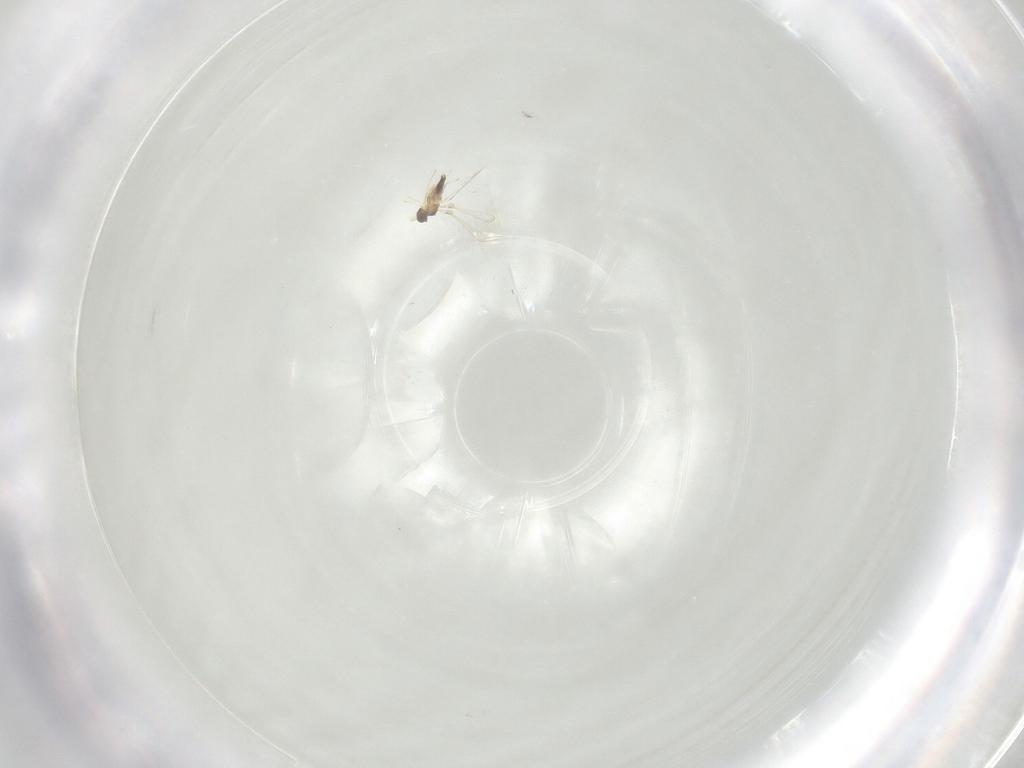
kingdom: Animalia
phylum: Arthropoda
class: Insecta
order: Hymenoptera
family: Mymaridae
